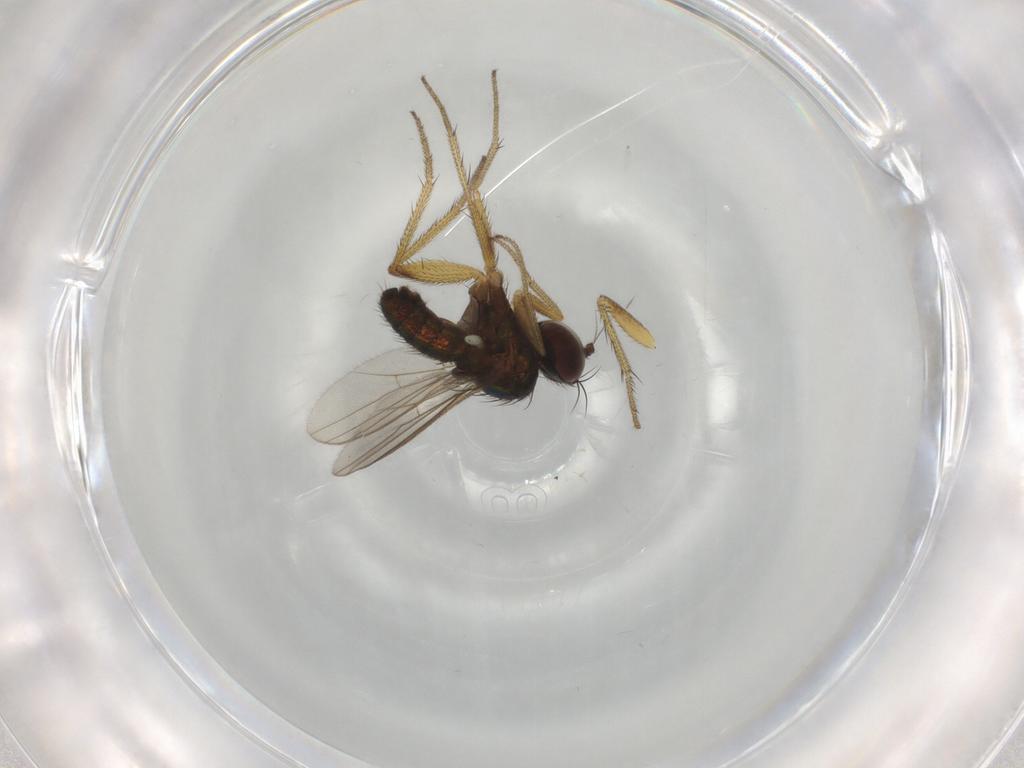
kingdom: Animalia
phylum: Arthropoda
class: Insecta
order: Diptera
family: Dolichopodidae
